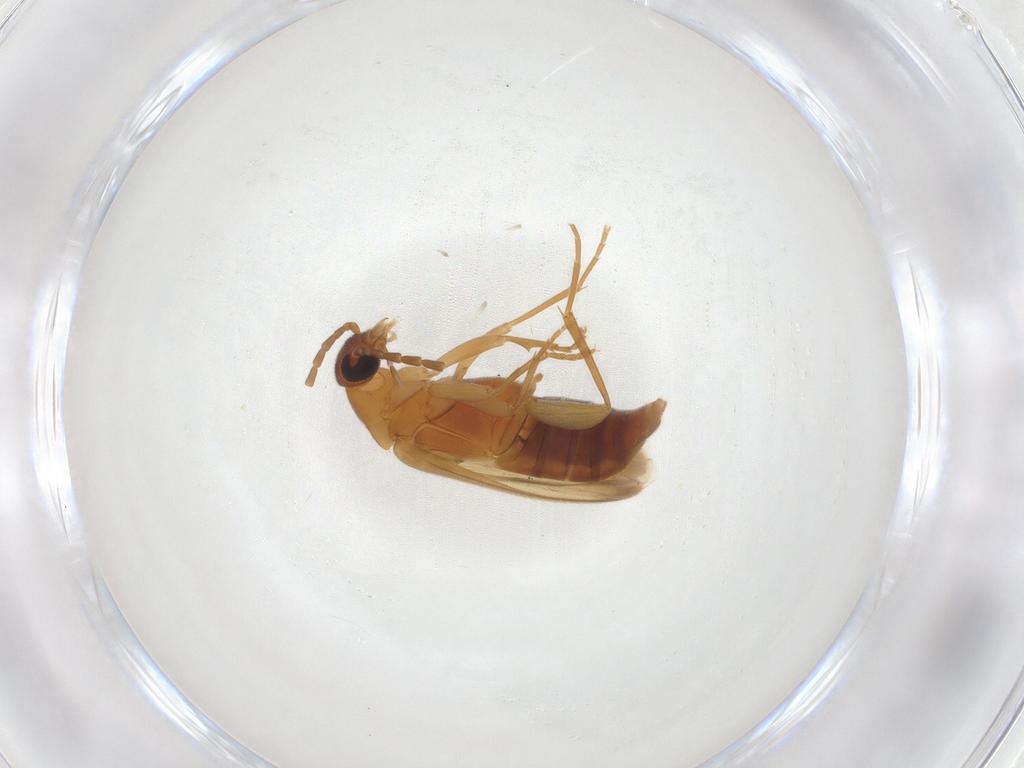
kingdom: Animalia
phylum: Arthropoda
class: Insecta
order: Coleoptera
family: Scraptiidae
